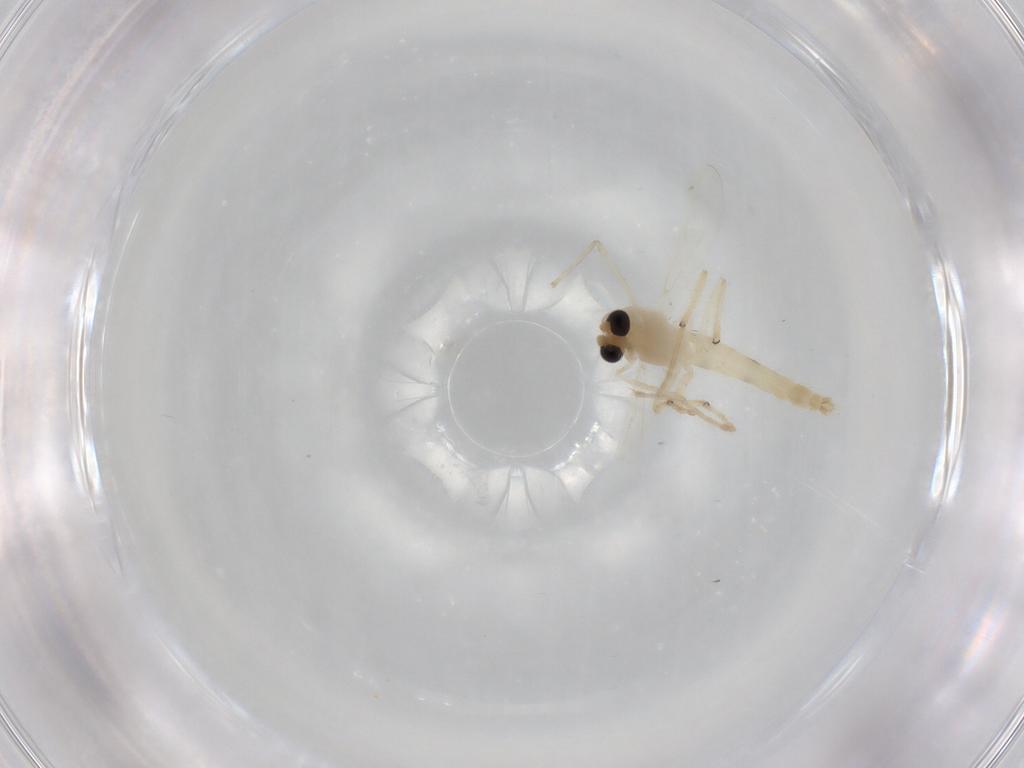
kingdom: Animalia
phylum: Arthropoda
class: Insecta
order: Diptera
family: Chironomidae
